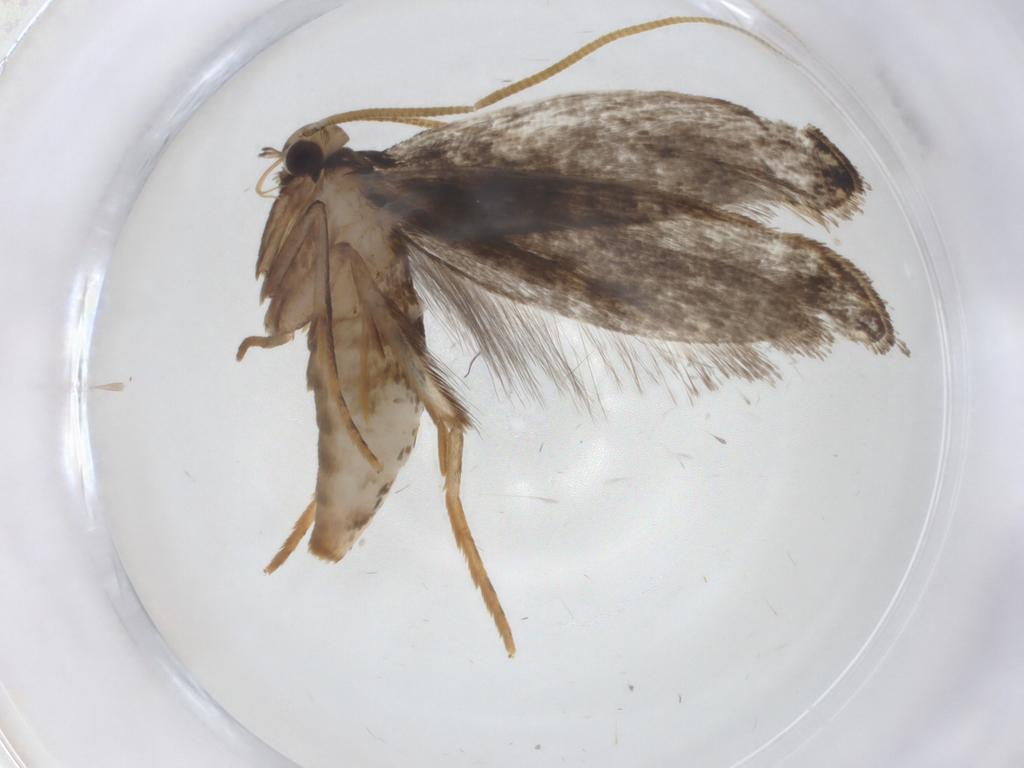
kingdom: Animalia
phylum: Arthropoda
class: Insecta
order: Lepidoptera
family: Tineidae
